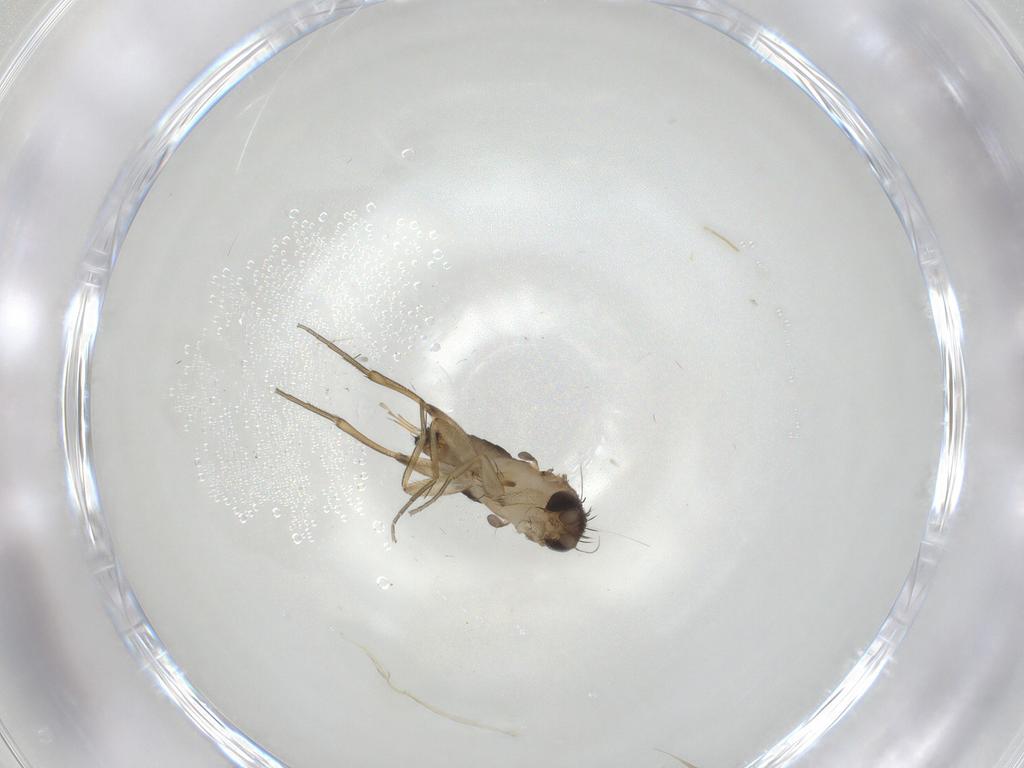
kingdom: Animalia
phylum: Arthropoda
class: Insecta
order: Diptera
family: Phoridae
